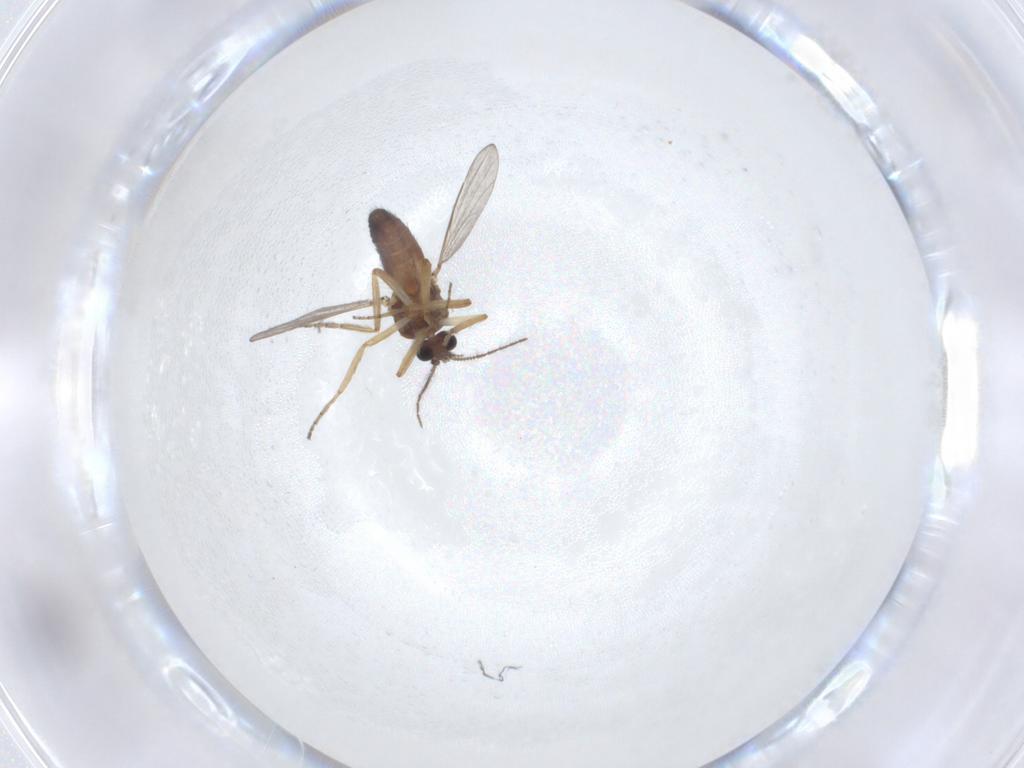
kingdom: Animalia
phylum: Arthropoda
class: Insecta
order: Diptera
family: Ceratopogonidae
